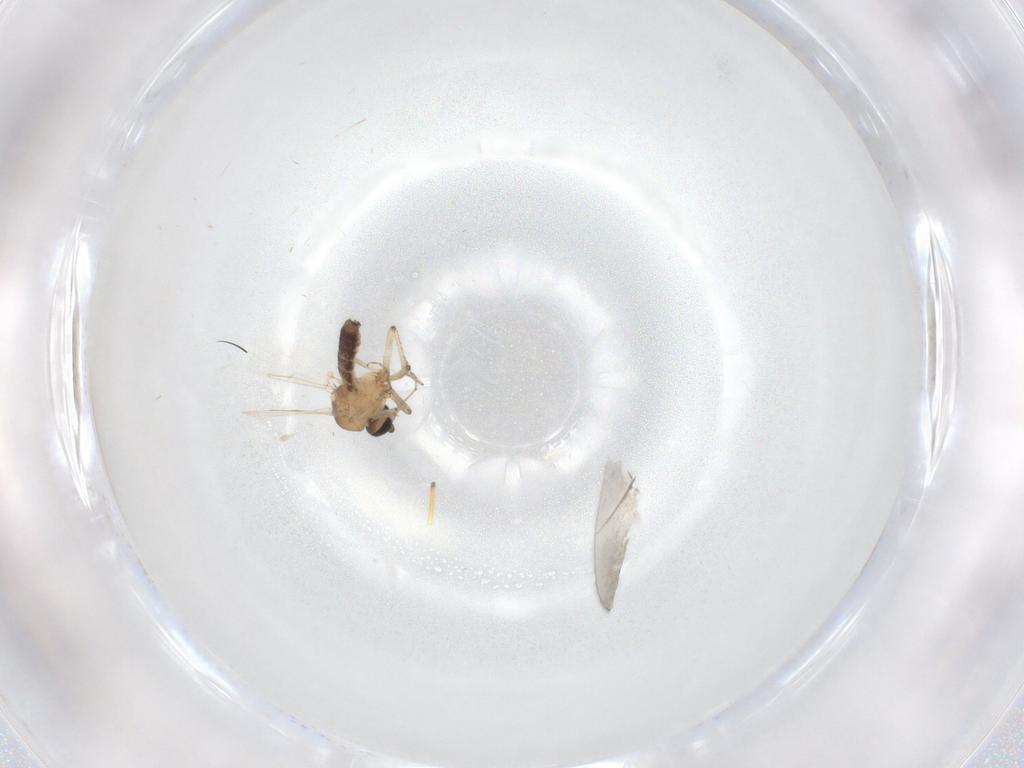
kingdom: Animalia
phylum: Arthropoda
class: Insecta
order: Diptera
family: Ceratopogonidae
